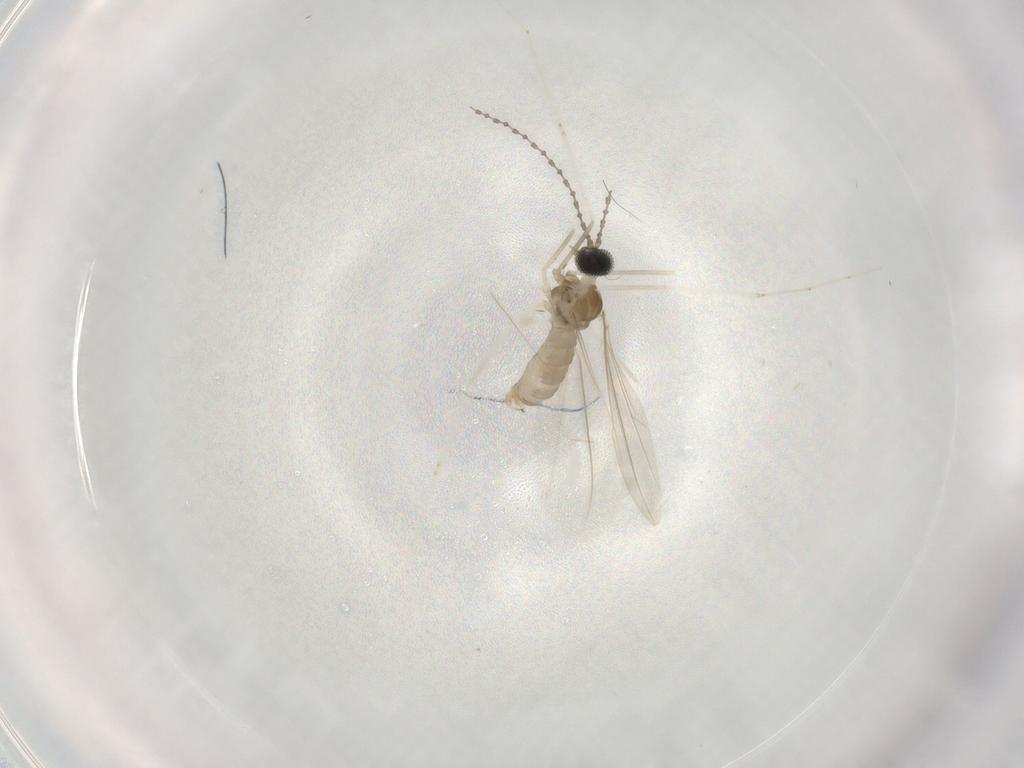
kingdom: Animalia
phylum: Arthropoda
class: Insecta
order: Diptera
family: Cecidomyiidae
